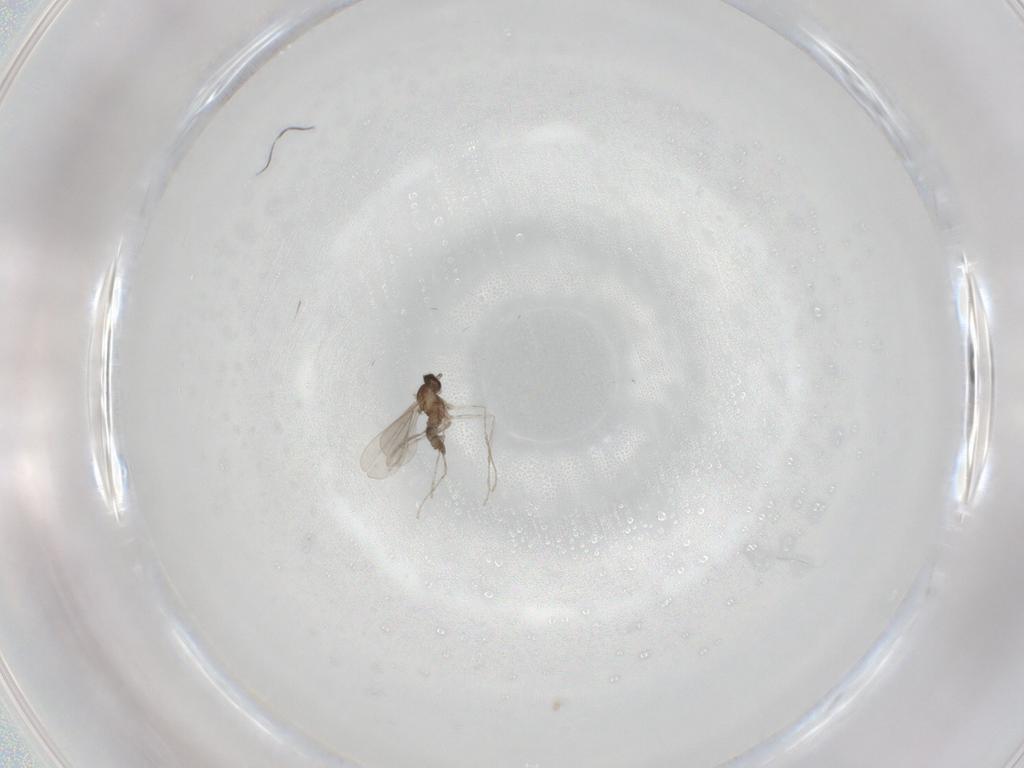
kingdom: Animalia
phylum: Arthropoda
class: Insecta
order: Diptera
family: Cecidomyiidae
